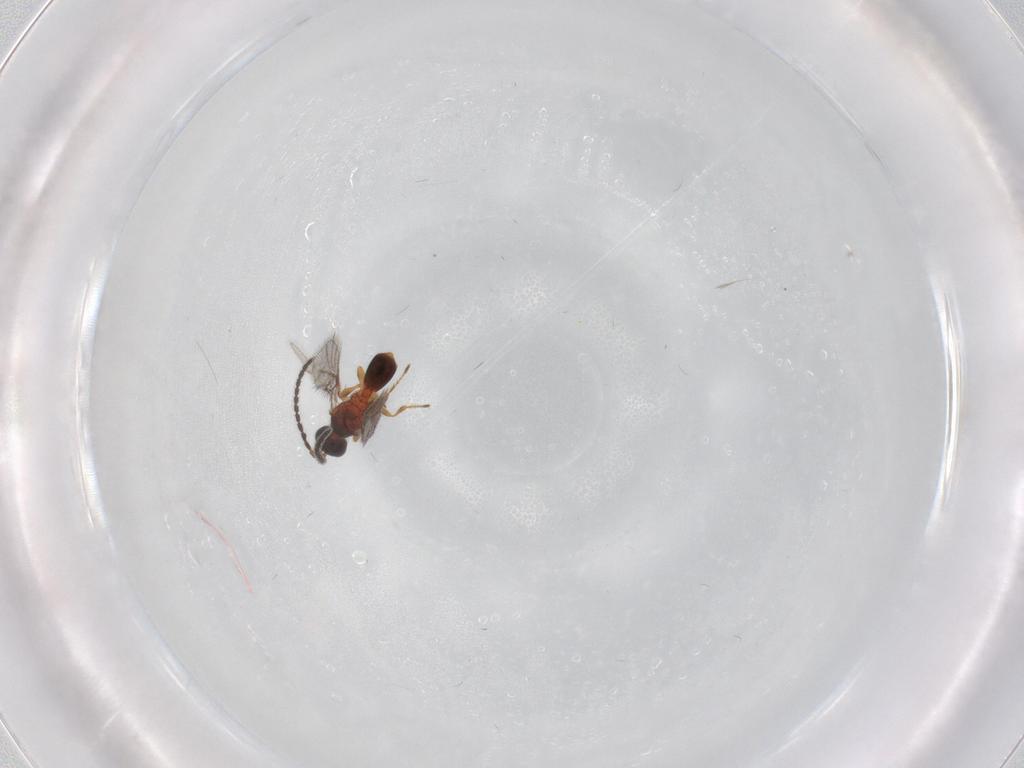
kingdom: Animalia
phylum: Arthropoda
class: Insecta
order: Hymenoptera
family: Diapriidae
